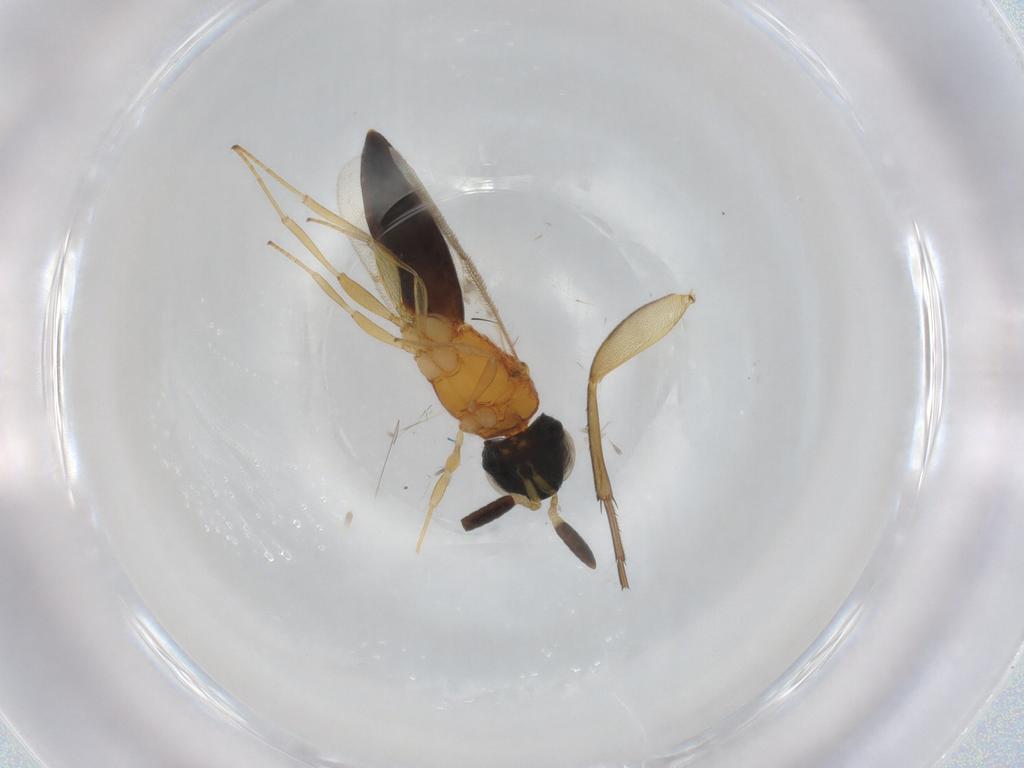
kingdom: Animalia
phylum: Arthropoda
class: Insecta
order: Hymenoptera
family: Scelionidae
